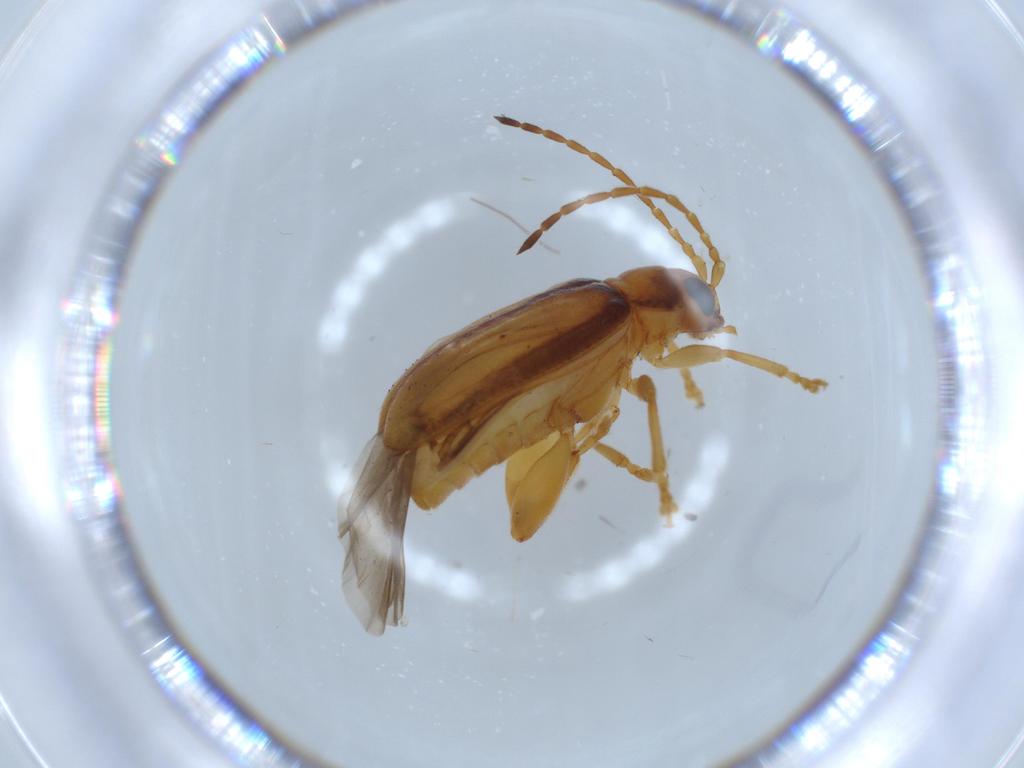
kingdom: Animalia
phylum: Arthropoda
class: Insecta
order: Coleoptera
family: Chrysomelidae
